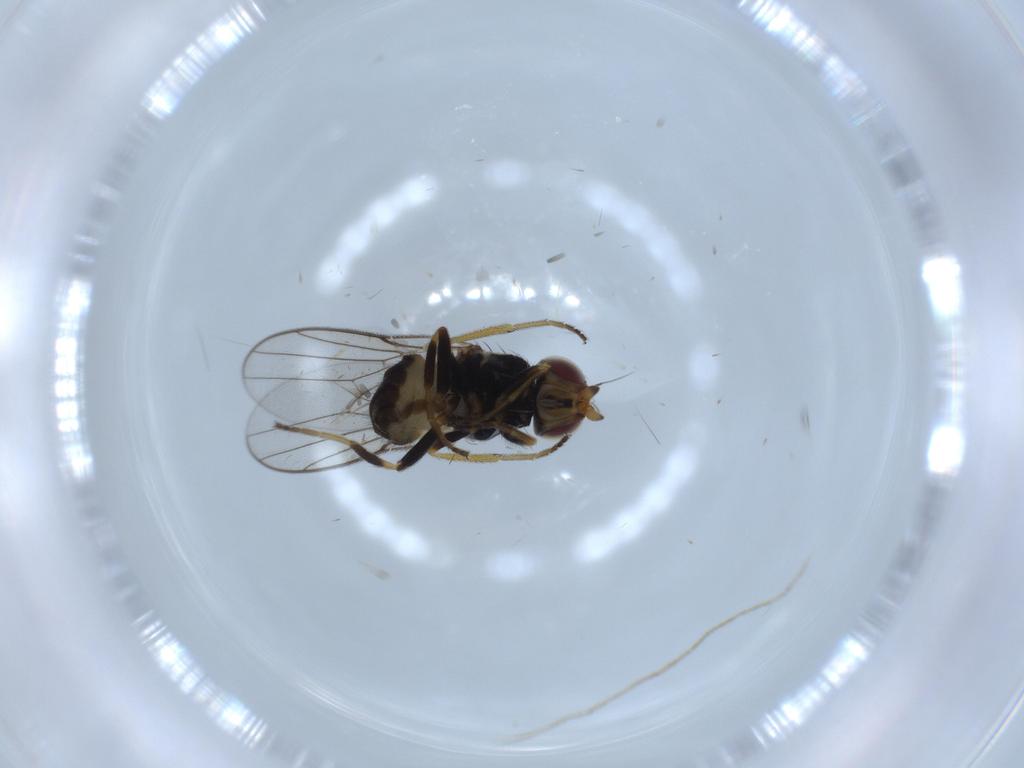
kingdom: Animalia
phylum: Arthropoda
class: Insecta
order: Diptera
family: Chloropidae
